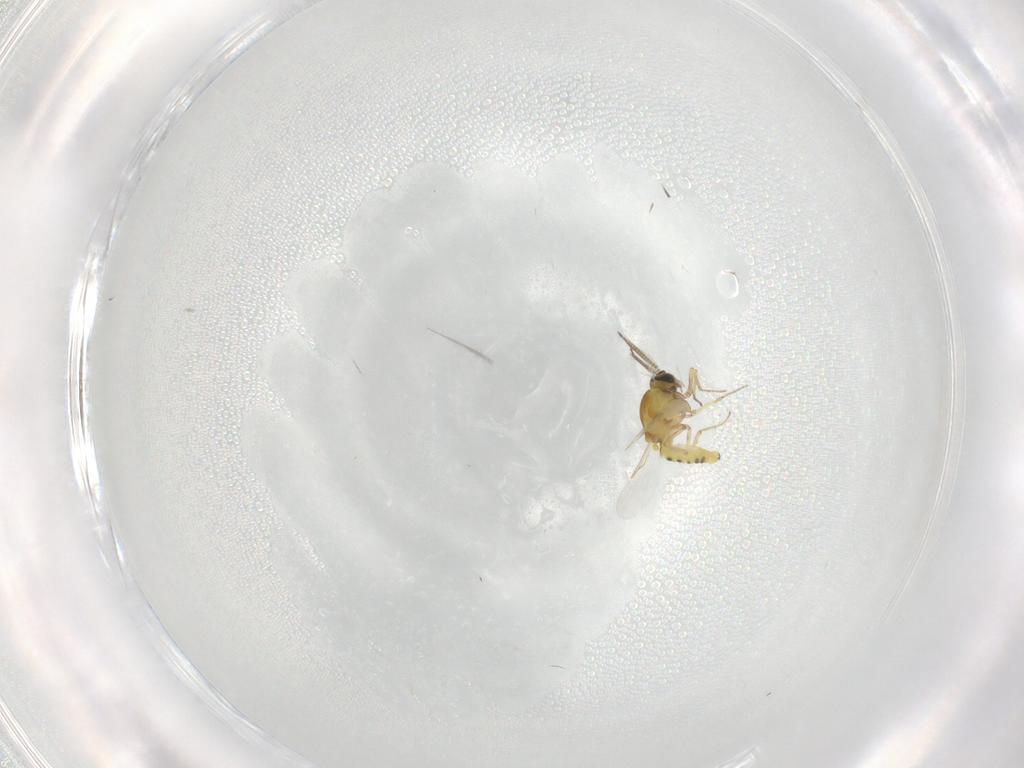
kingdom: Animalia
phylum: Arthropoda
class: Insecta
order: Diptera
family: Ceratopogonidae
